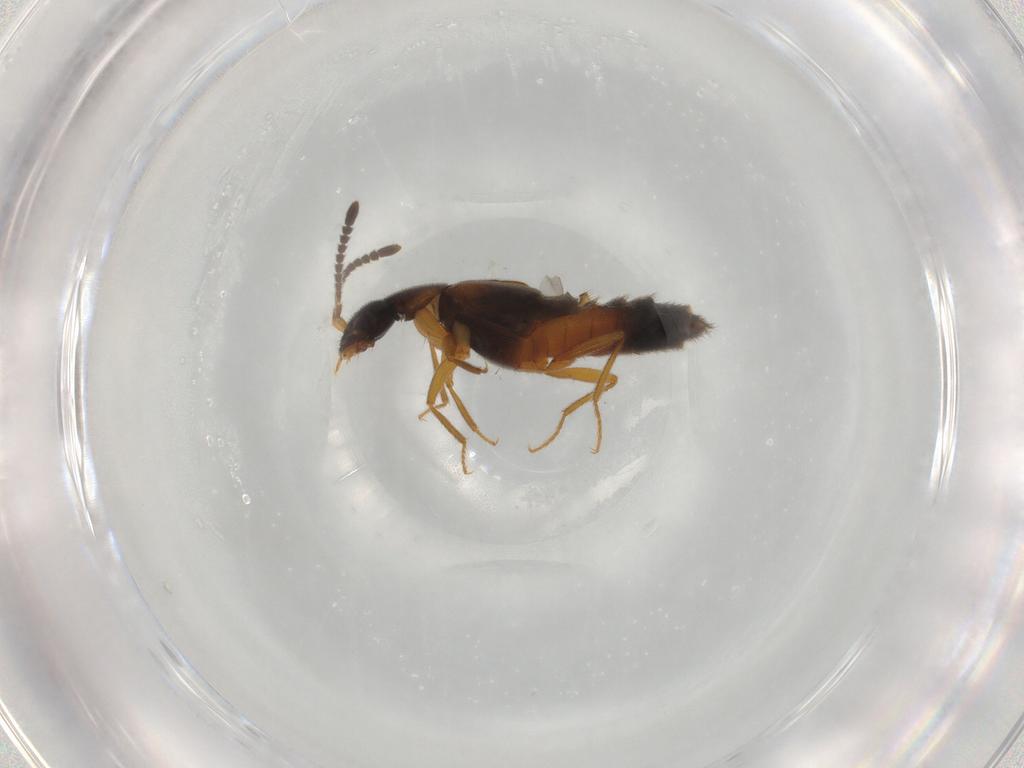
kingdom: Animalia
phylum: Arthropoda
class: Insecta
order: Coleoptera
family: Staphylinidae
